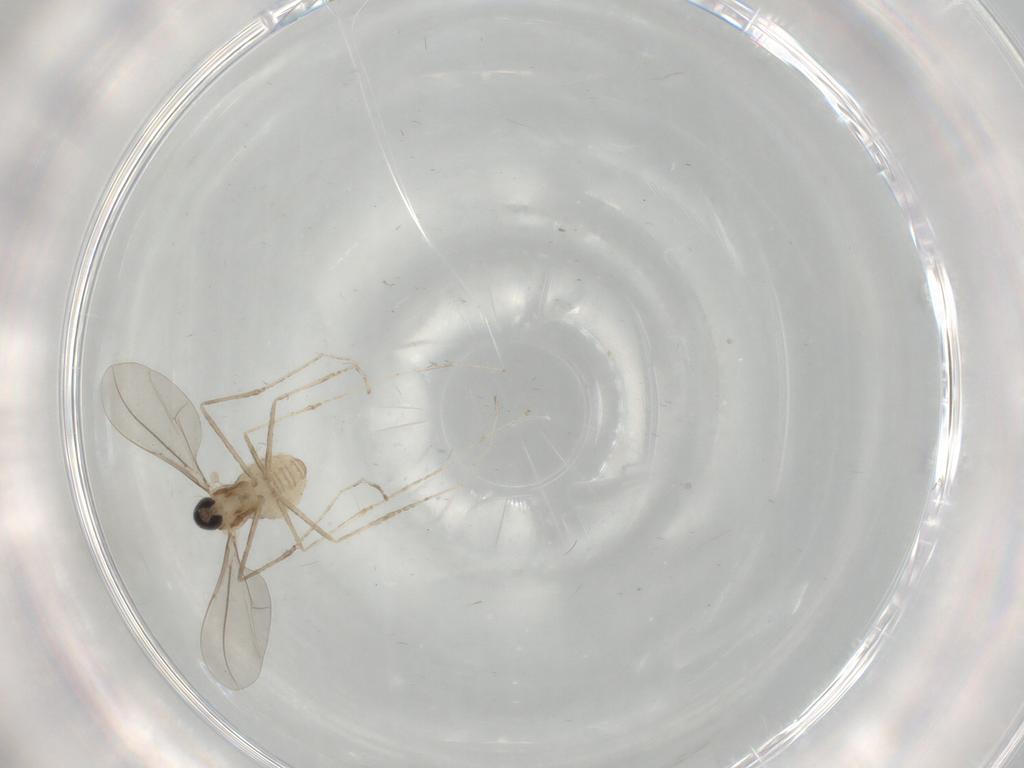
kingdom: Animalia
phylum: Arthropoda
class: Insecta
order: Diptera
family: Cecidomyiidae
